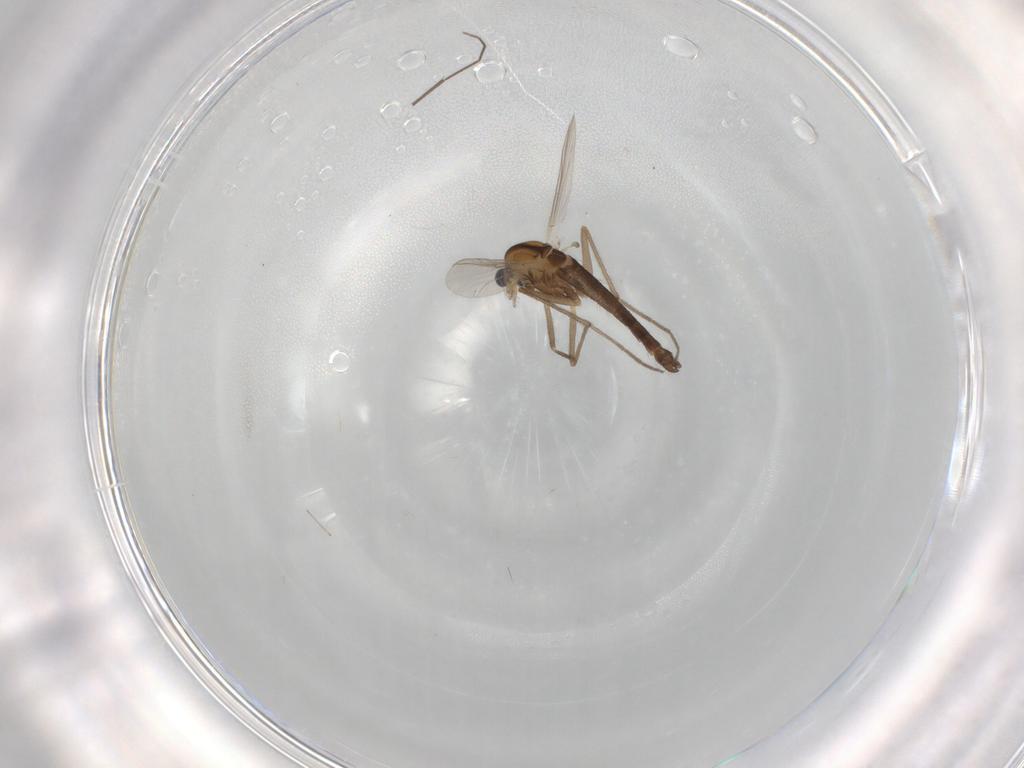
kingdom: Animalia
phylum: Arthropoda
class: Insecta
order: Diptera
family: Chironomidae
